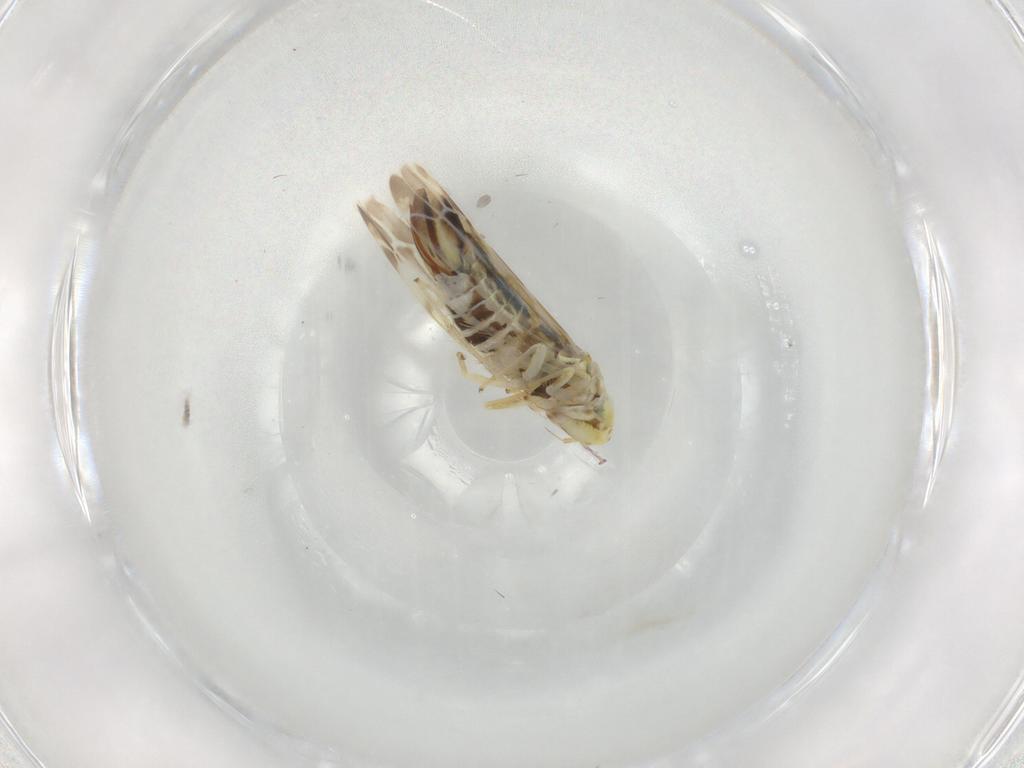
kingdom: Animalia
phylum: Arthropoda
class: Insecta
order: Hemiptera
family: Cicadellidae
